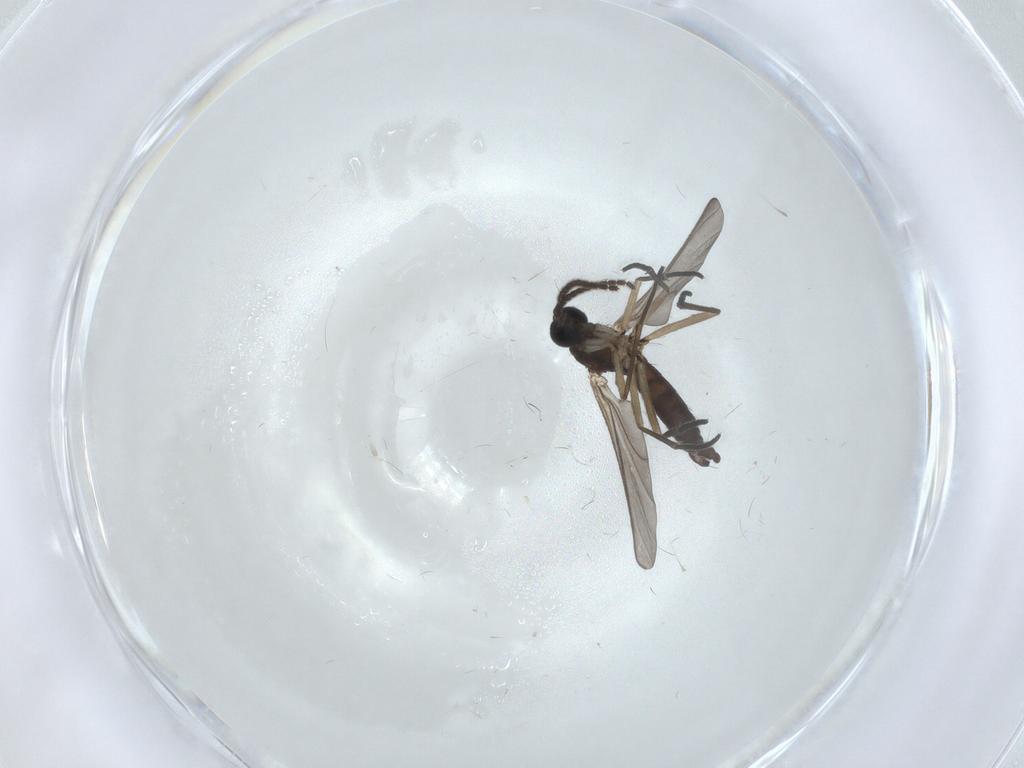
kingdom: Animalia
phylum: Arthropoda
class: Insecta
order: Diptera
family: Sciaridae
